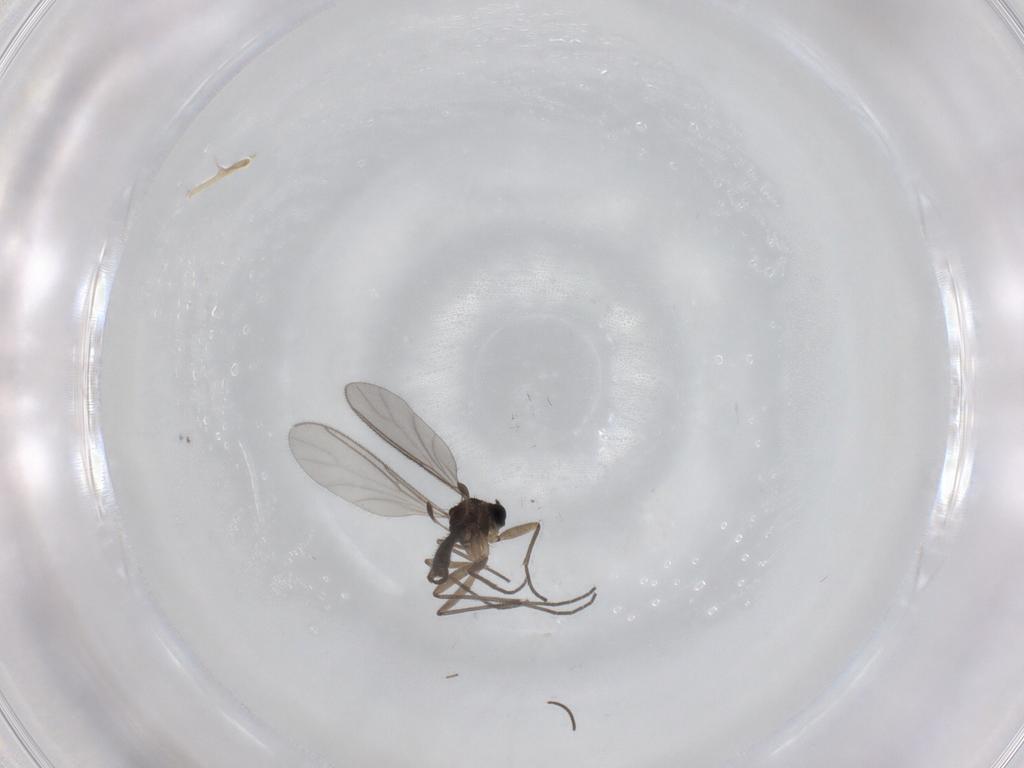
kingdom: Animalia
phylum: Arthropoda
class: Insecta
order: Diptera
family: Sciaridae
